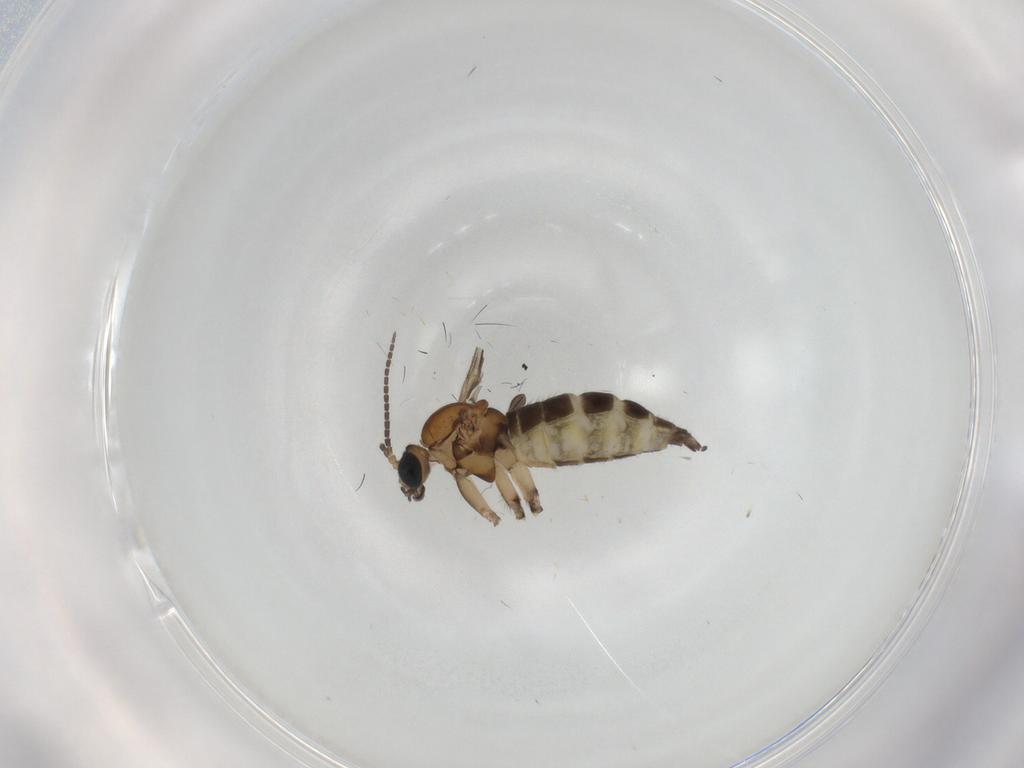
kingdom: Animalia
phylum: Arthropoda
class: Insecta
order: Diptera
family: Sciaridae
